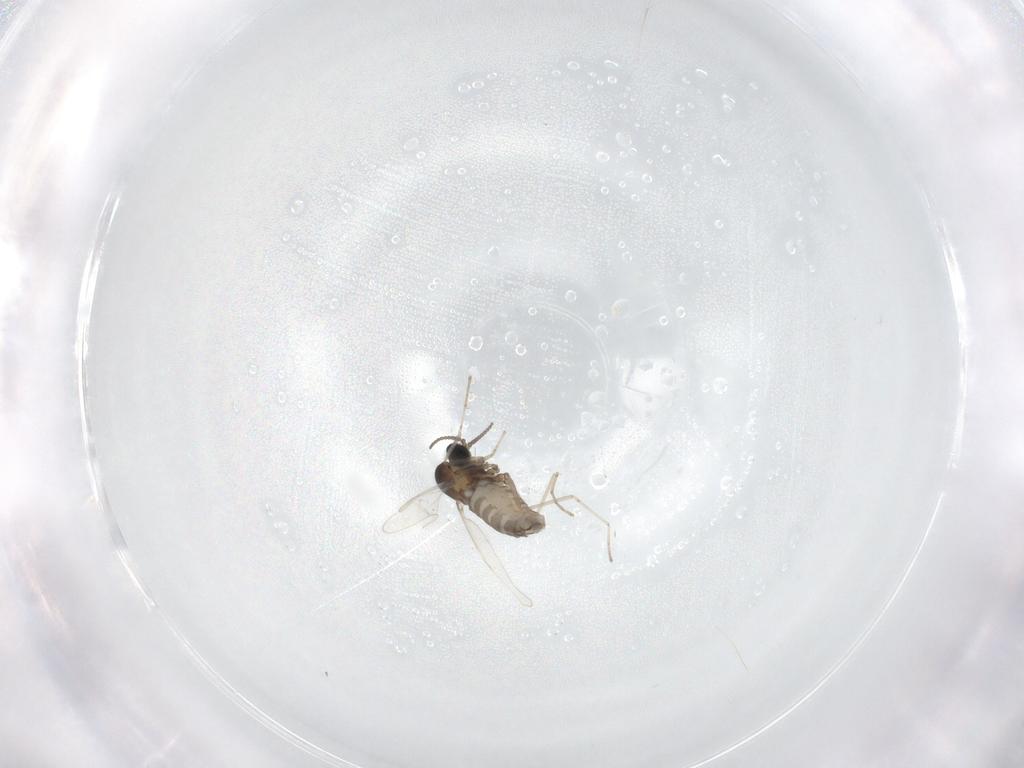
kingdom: Animalia
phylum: Arthropoda
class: Insecta
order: Diptera
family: Cecidomyiidae
